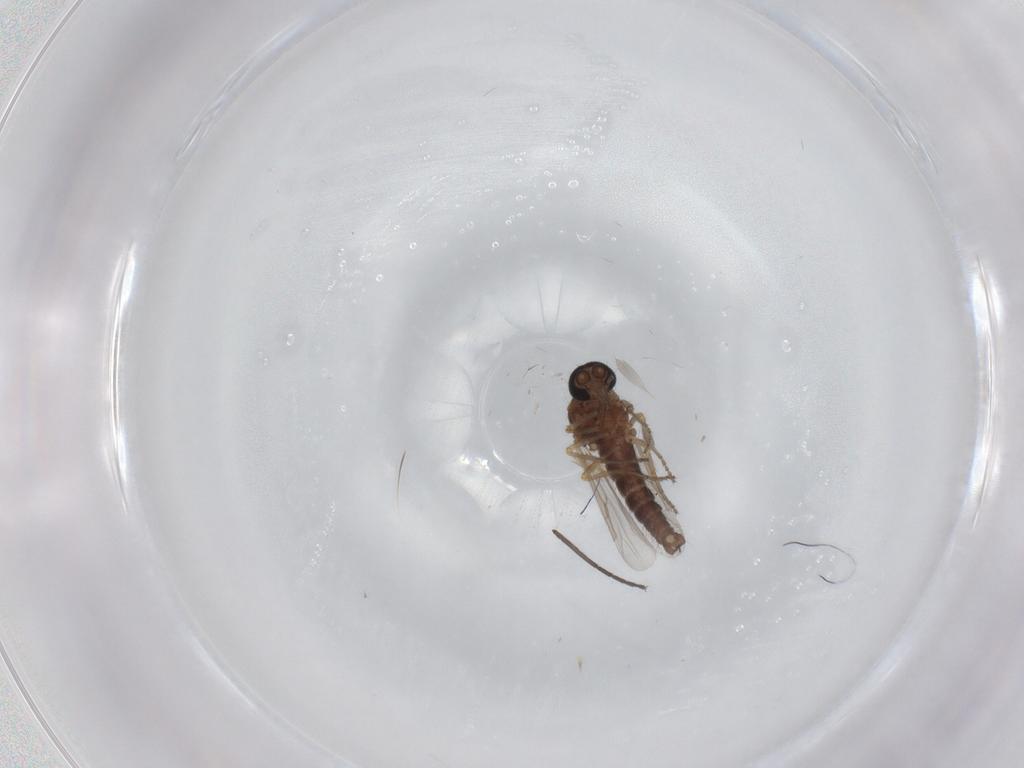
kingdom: Animalia
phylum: Arthropoda
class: Insecta
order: Diptera
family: Ceratopogonidae
